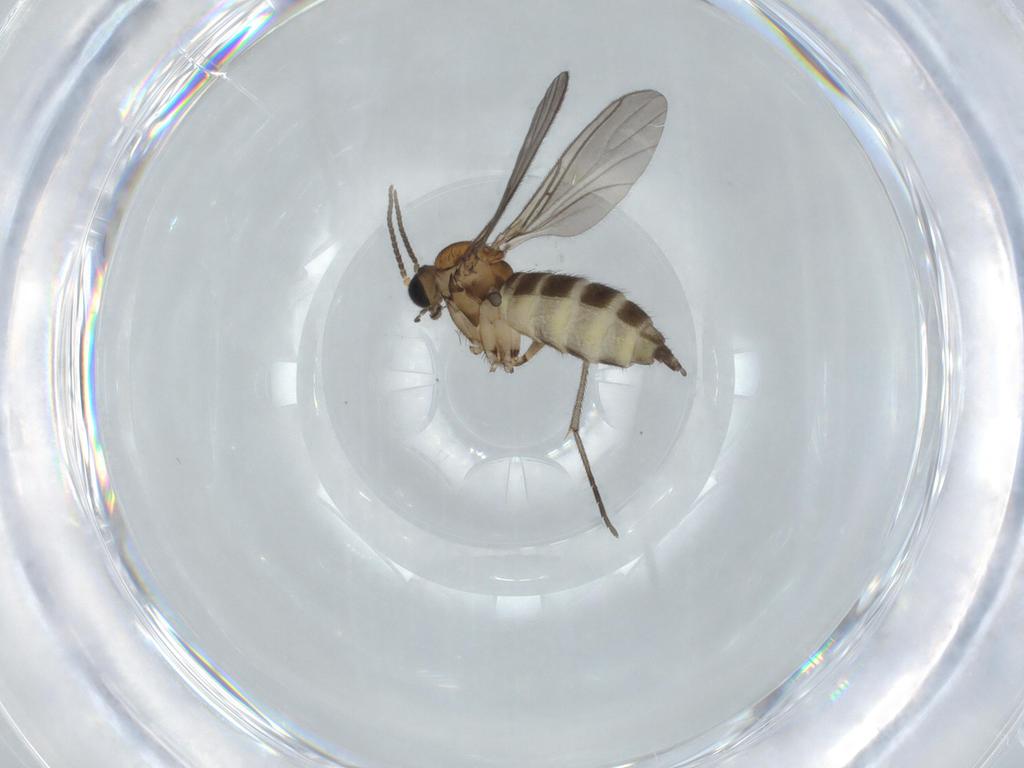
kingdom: Animalia
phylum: Arthropoda
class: Insecta
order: Diptera
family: Sciaridae
